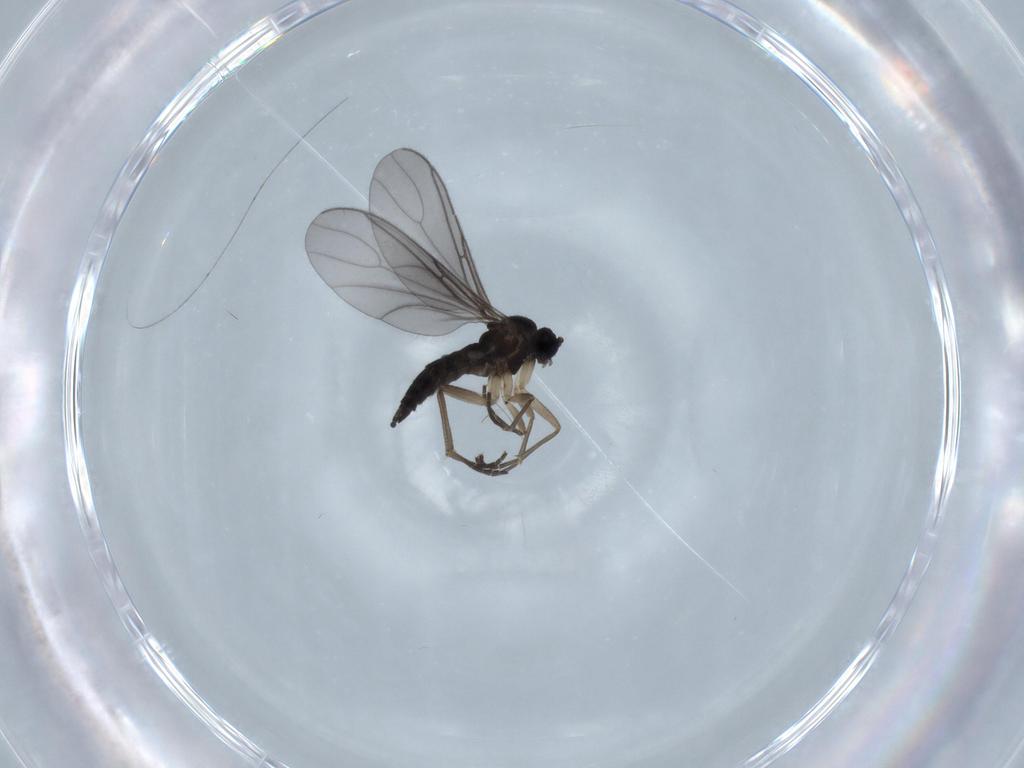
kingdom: Animalia
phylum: Arthropoda
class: Insecta
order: Diptera
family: Sciaridae
